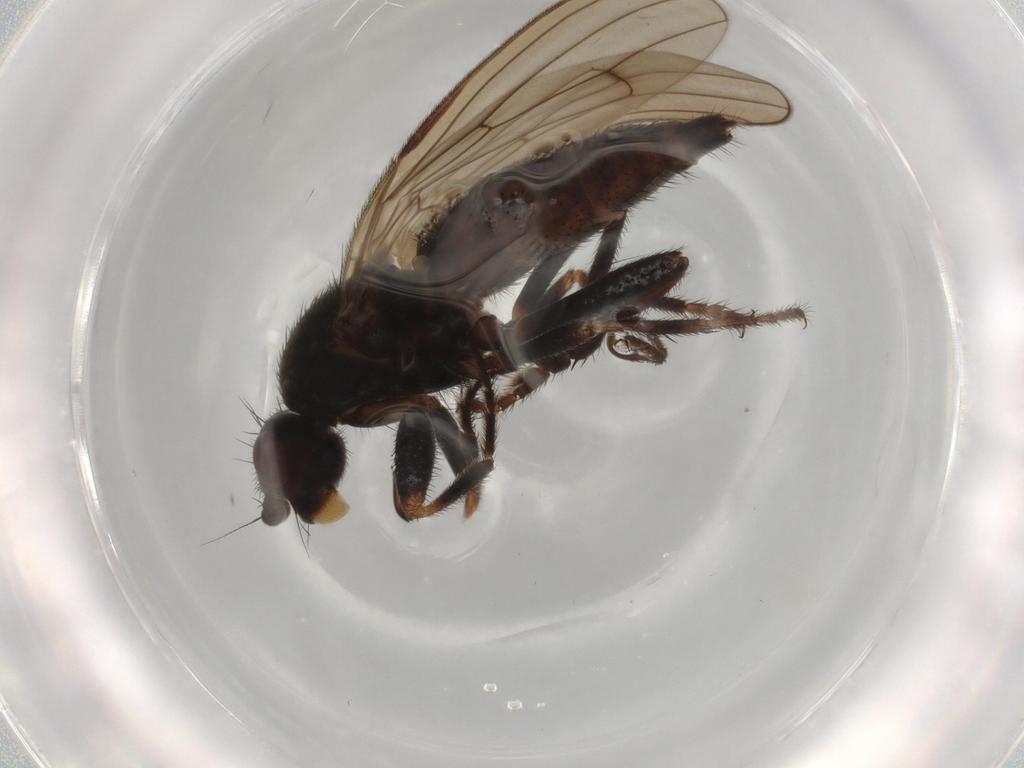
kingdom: Animalia
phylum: Arthropoda
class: Insecta
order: Diptera
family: Sphaeroceridae
